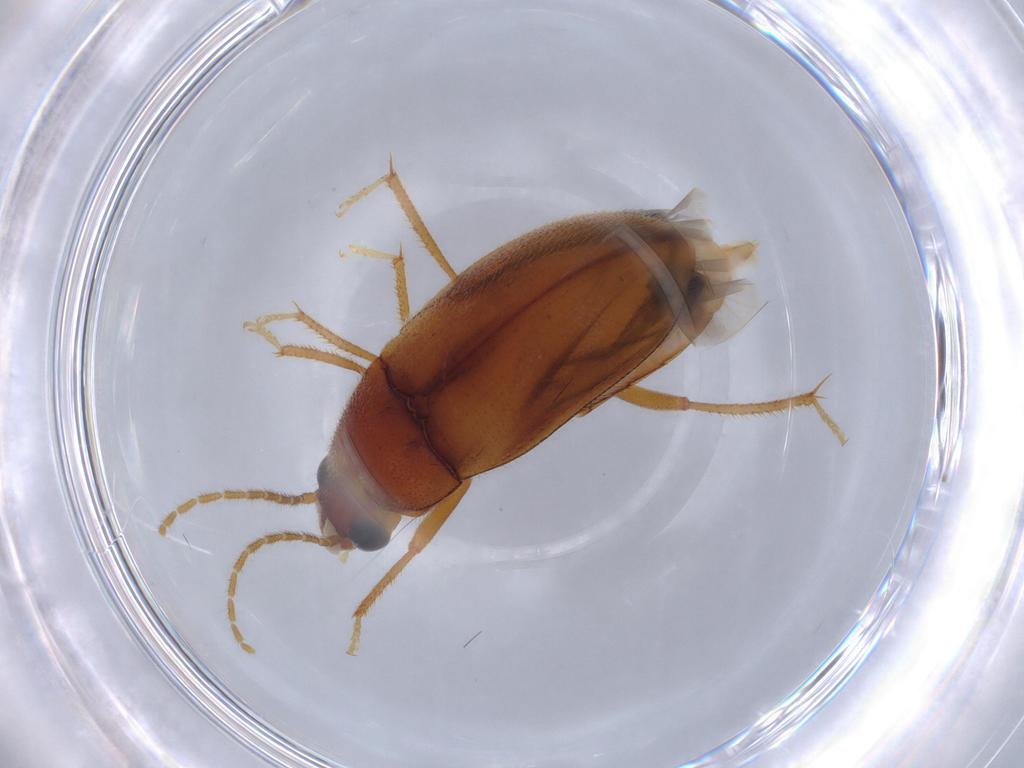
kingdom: Animalia
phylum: Arthropoda
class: Insecta
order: Coleoptera
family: Ptilodactylidae
